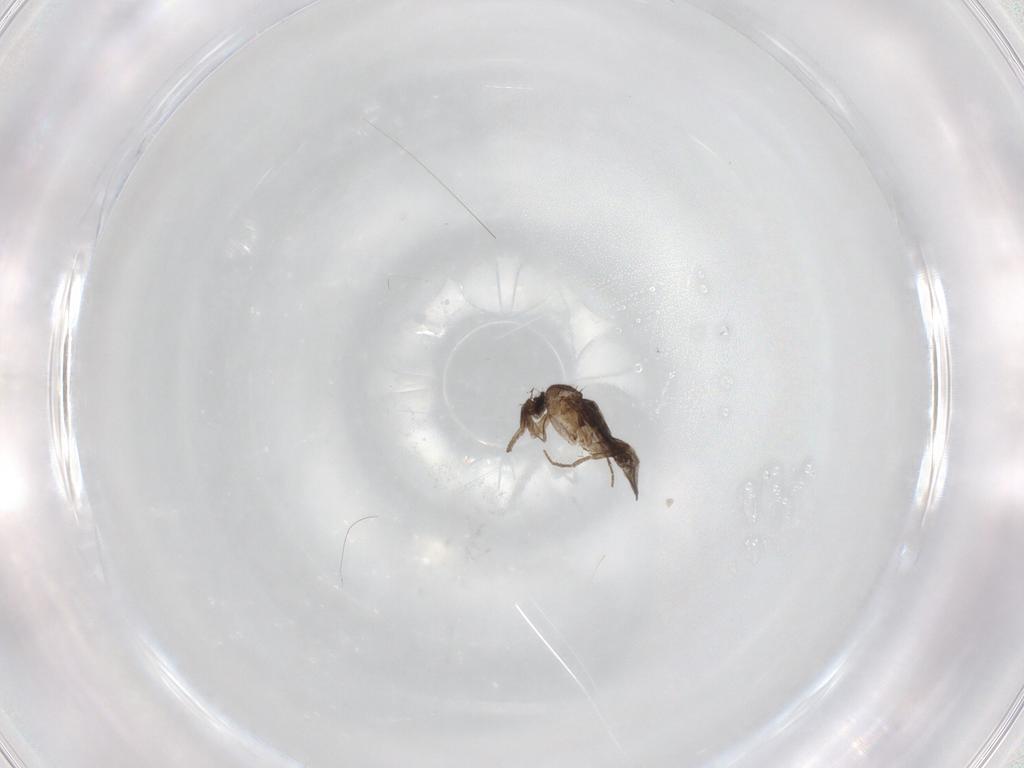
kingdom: Animalia
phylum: Arthropoda
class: Insecta
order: Diptera
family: Phoridae
